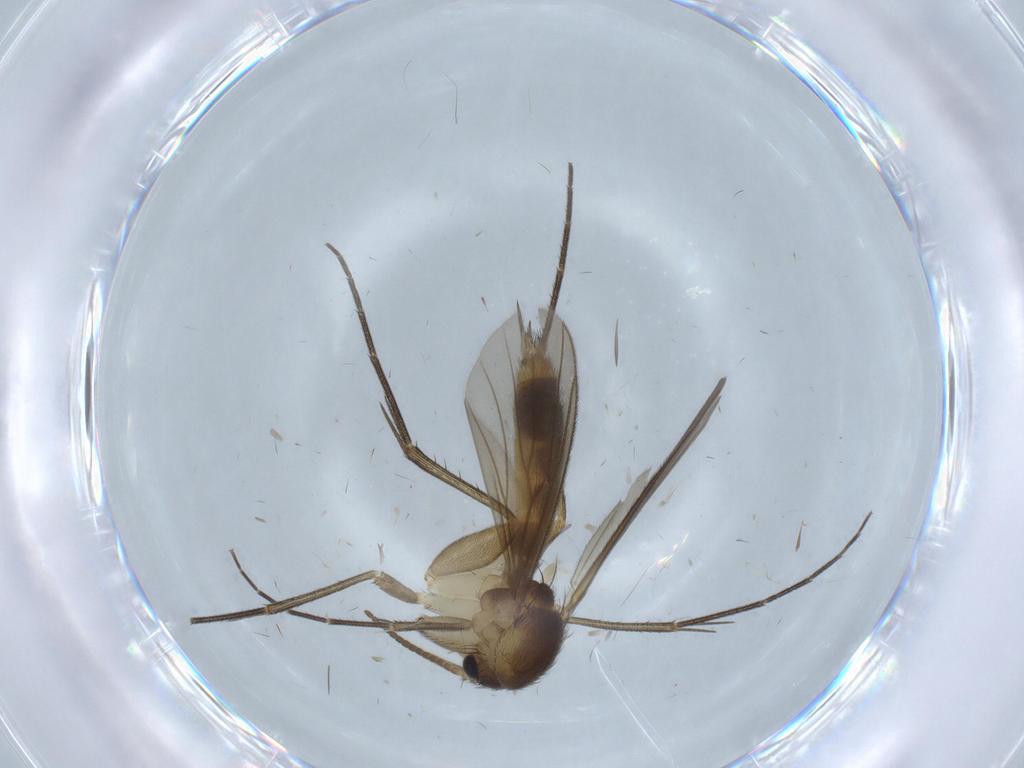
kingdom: Animalia
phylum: Arthropoda
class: Insecta
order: Diptera
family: Mycetophilidae
